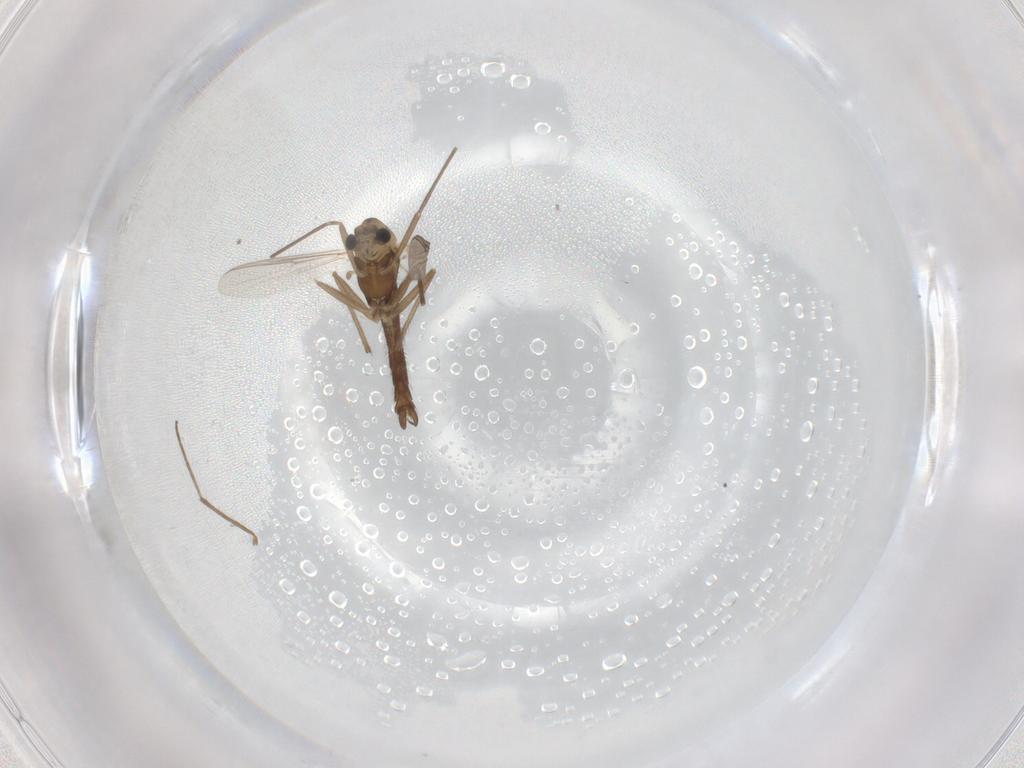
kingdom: Animalia
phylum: Arthropoda
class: Insecta
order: Diptera
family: Chironomidae
